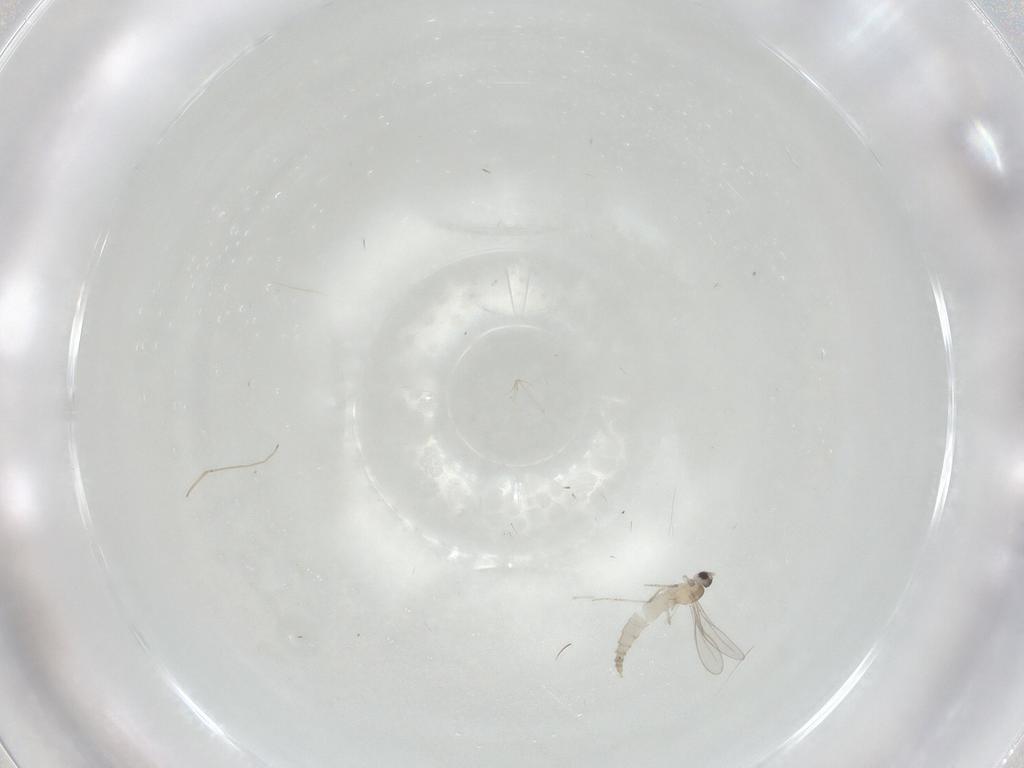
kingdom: Animalia
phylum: Arthropoda
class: Insecta
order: Diptera
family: Cecidomyiidae
